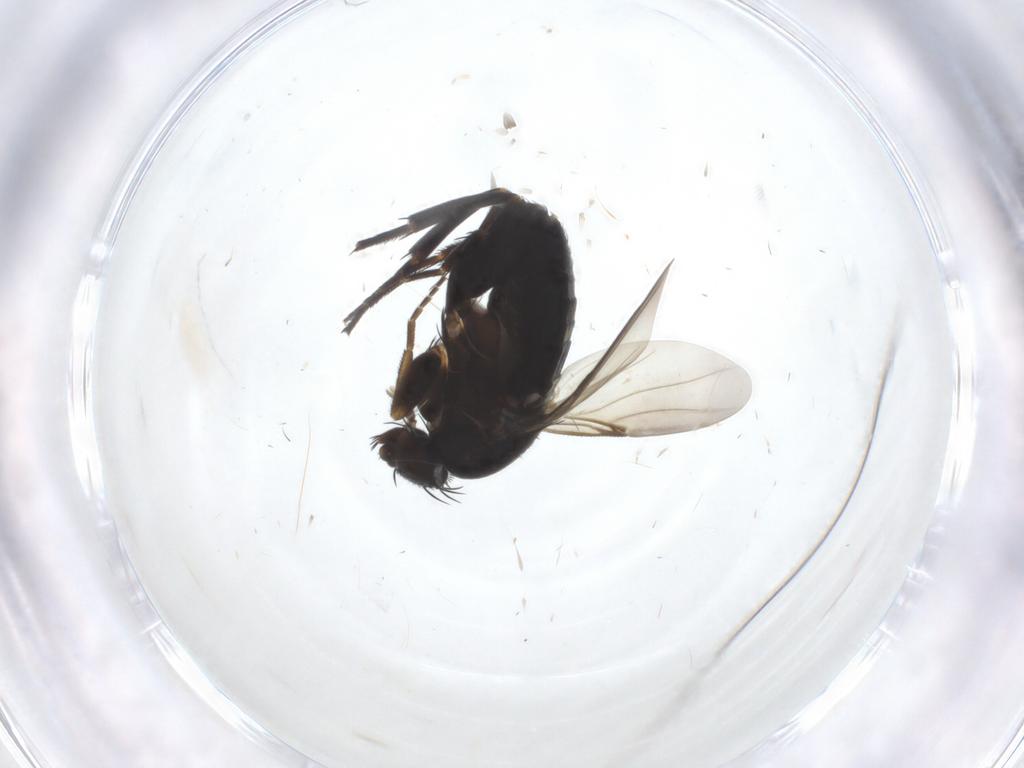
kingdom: Animalia
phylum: Arthropoda
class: Insecta
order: Diptera
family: Phoridae
